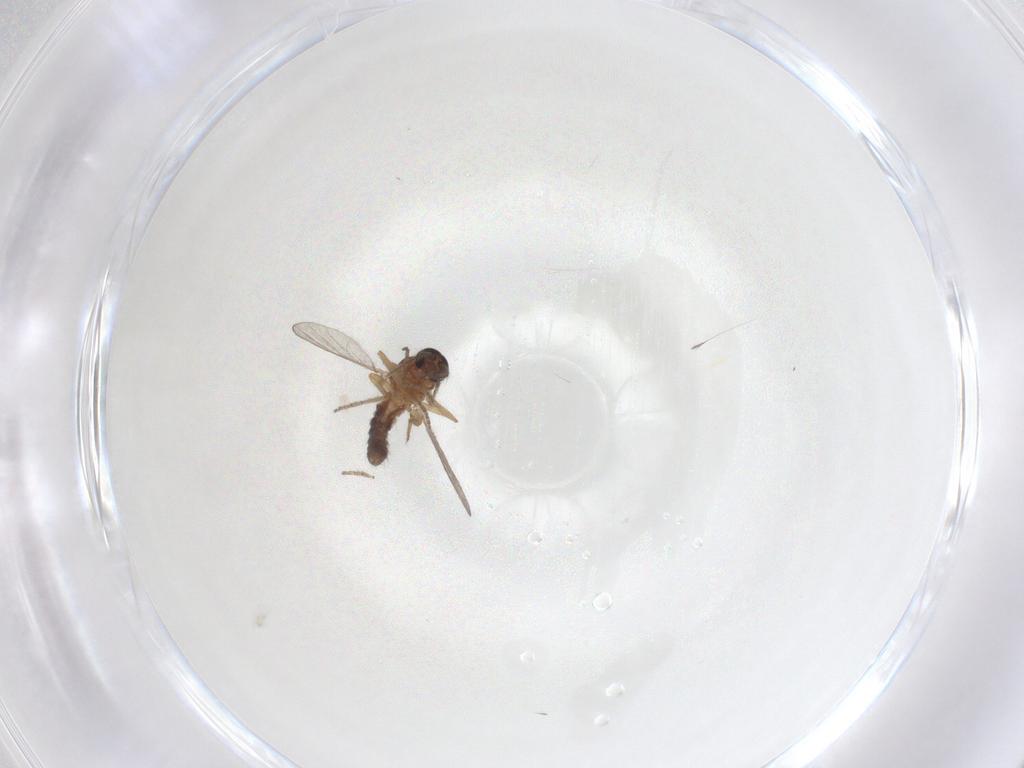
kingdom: Animalia
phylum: Arthropoda
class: Insecta
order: Diptera
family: Ceratopogonidae
